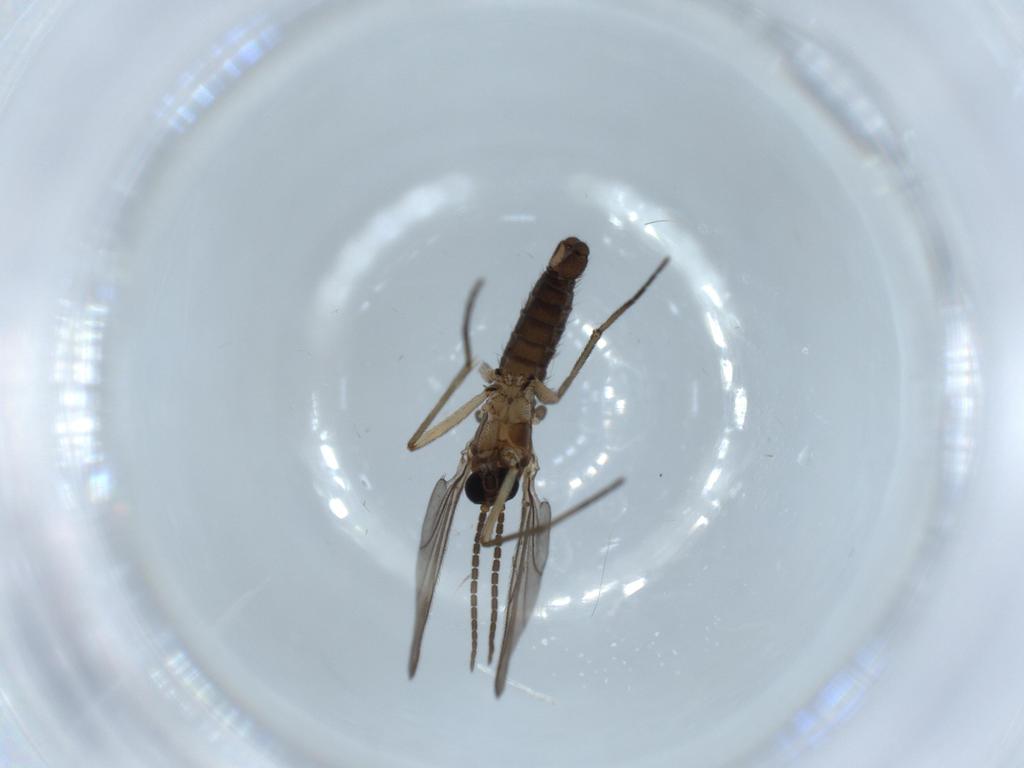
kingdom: Animalia
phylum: Arthropoda
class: Insecta
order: Diptera
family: Sciaridae
